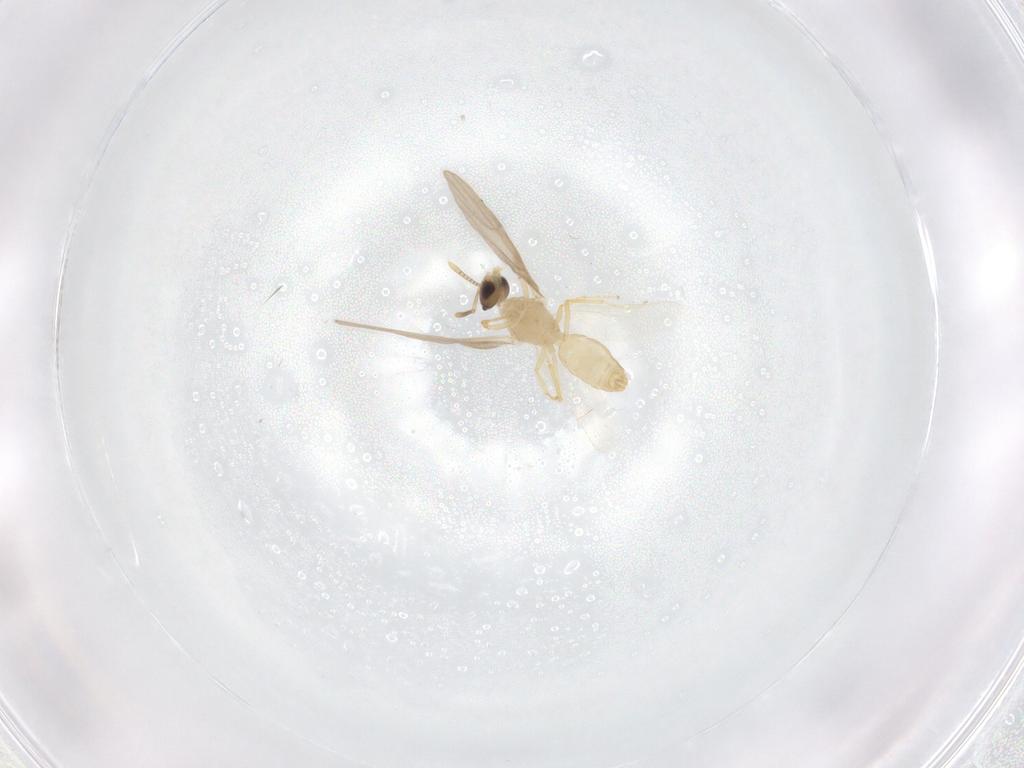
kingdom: Animalia
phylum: Arthropoda
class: Insecta
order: Hymenoptera
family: Formicidae
